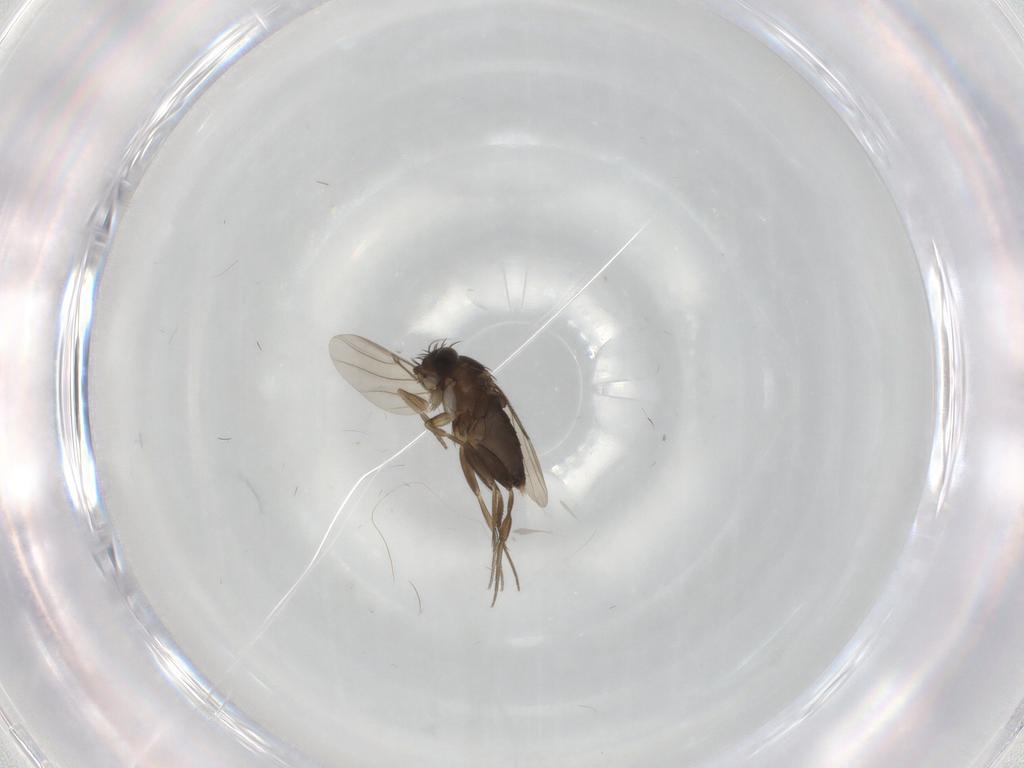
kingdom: Animalia
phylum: Arthropoda
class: Insecta
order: Diptera
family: Phoridae
